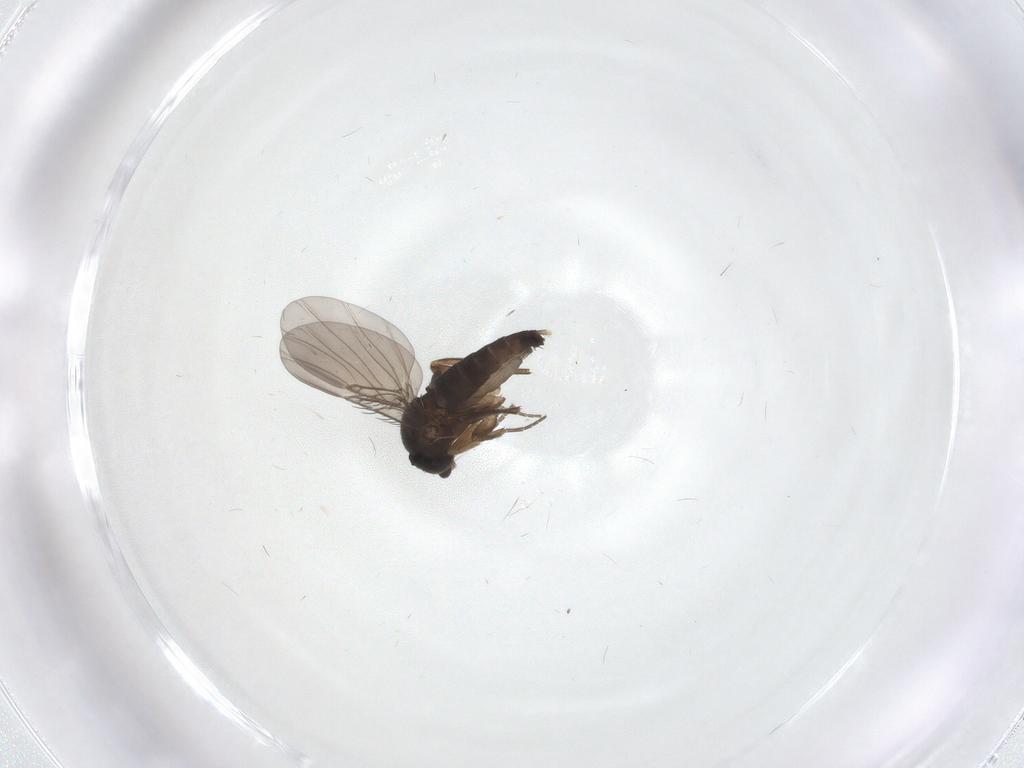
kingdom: Animalia
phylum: Arthropoda
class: Insecta
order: Diptera
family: Phoridae
